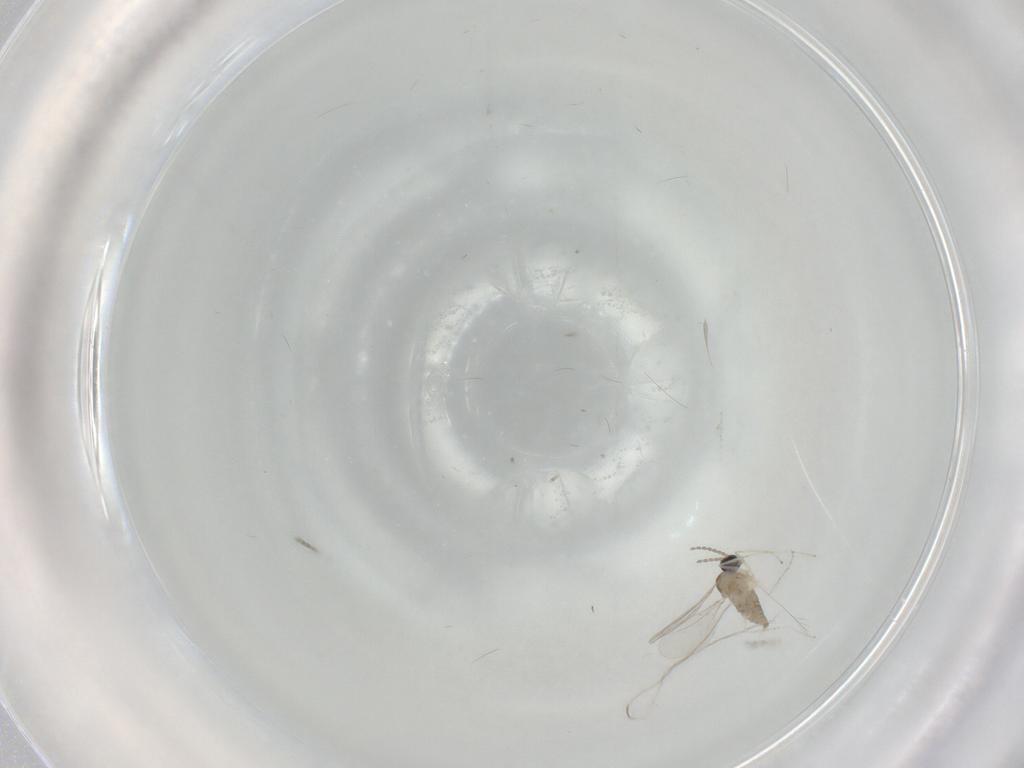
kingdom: Animalia
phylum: Arthropoda
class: Insecta
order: Diptera
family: Cecidomyiidae
